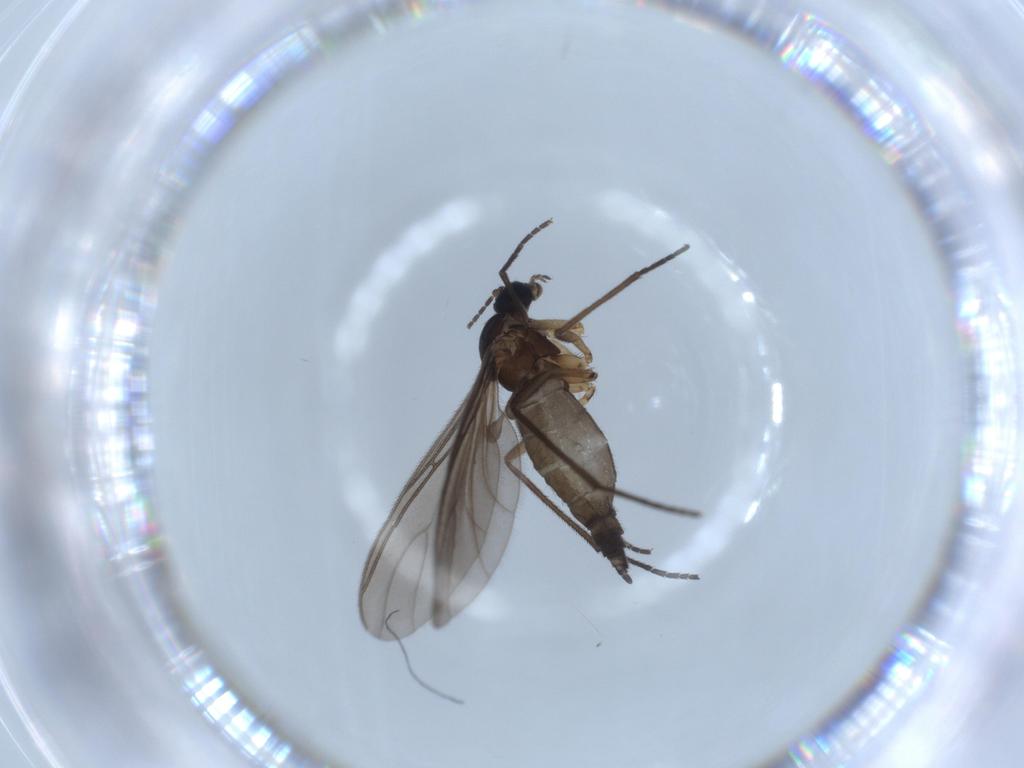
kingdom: Animalia
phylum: Arthropoda
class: Insecta
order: Diptera
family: Sciaridae
